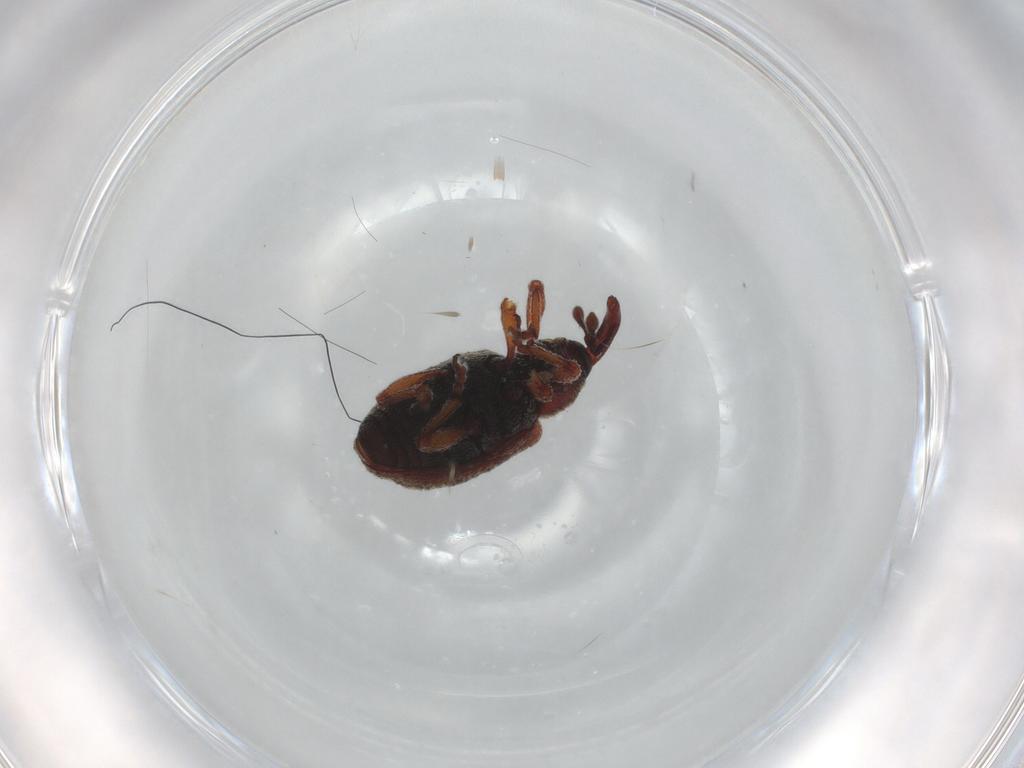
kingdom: Animalia
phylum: Arthropoda
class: Insecta
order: Coleoptera
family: Curculionidae
